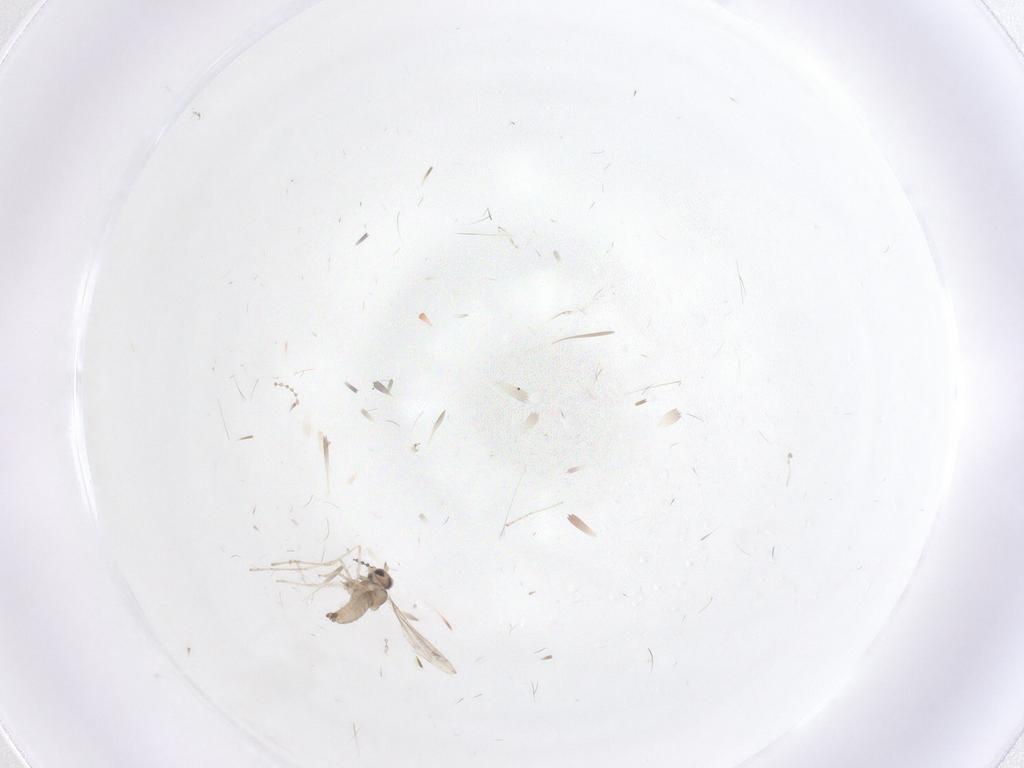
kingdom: Animalia
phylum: Arthropoda
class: Insecta
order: Diptera
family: Cecidomyiidae
